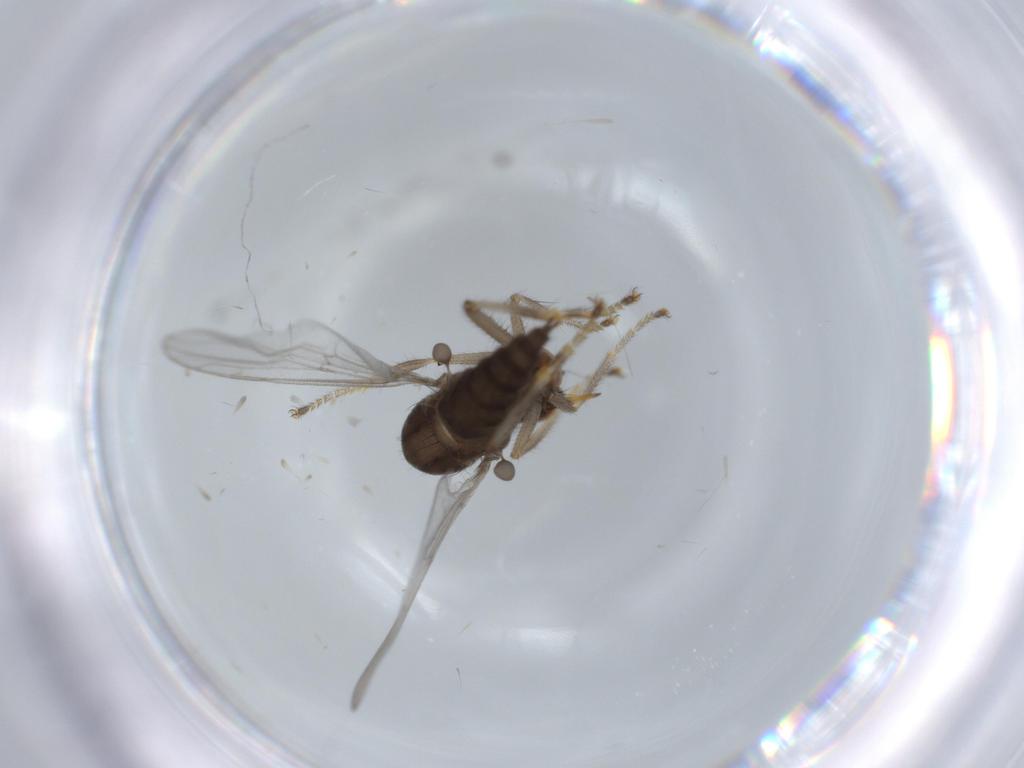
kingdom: Animalia
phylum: Arthropoda
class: Insecta
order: Diptera
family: Hybotidae
